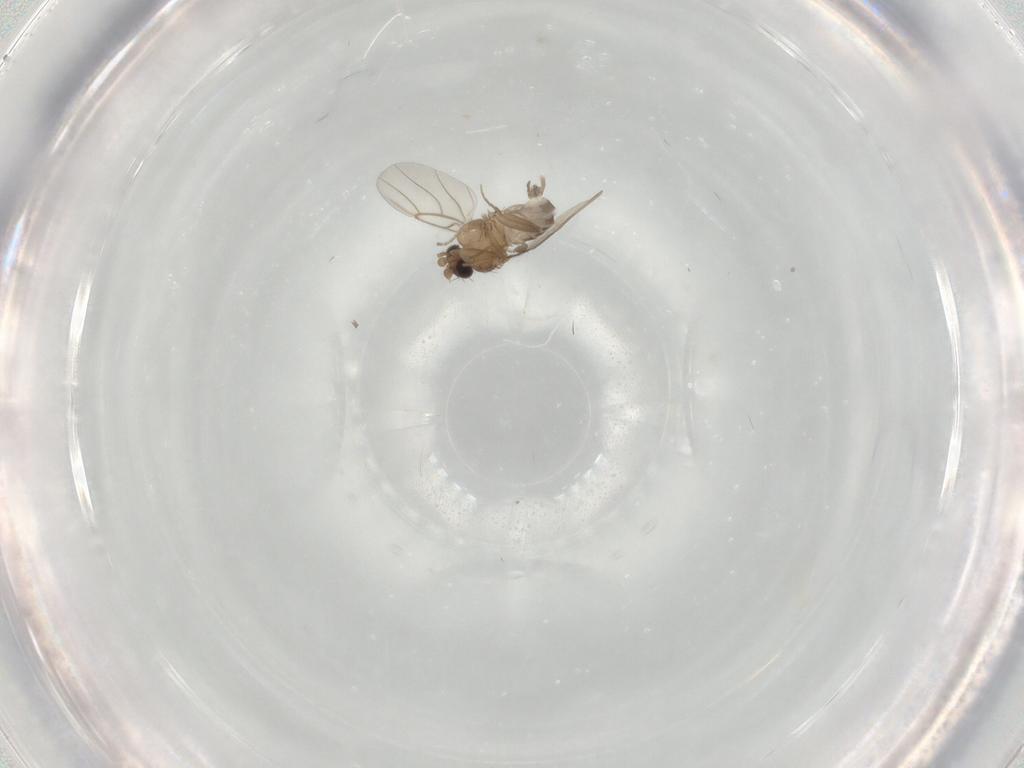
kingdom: Animalia
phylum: Arthropoda
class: Insecta
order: Diptera
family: Phoridae
